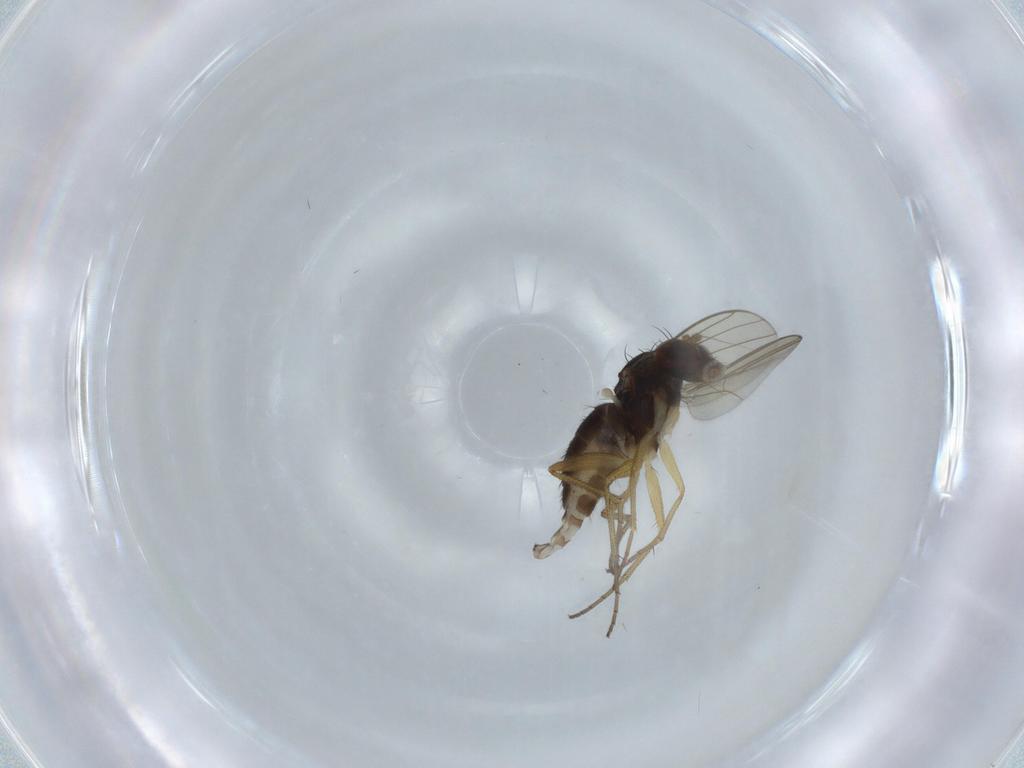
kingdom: Animalia
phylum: Arthropoda
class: Insecta
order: Diptera
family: Dolichopodidae
